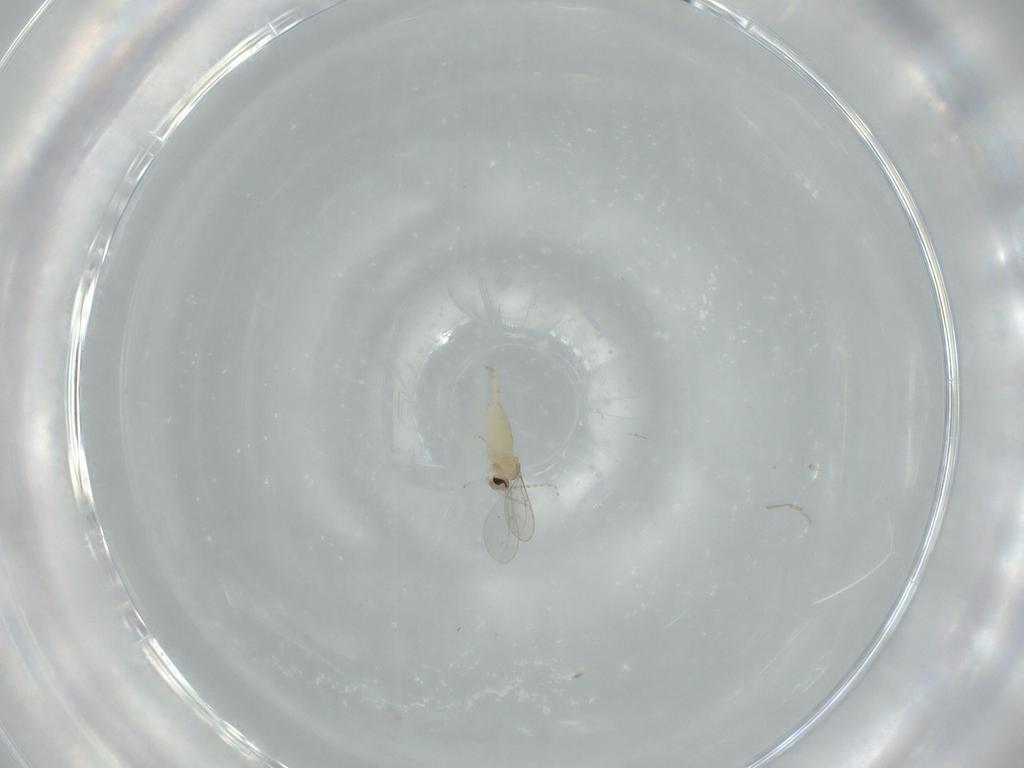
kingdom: Animalia
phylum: Arthropoda
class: Insecta
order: Diptera
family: Cecidomyiidae
